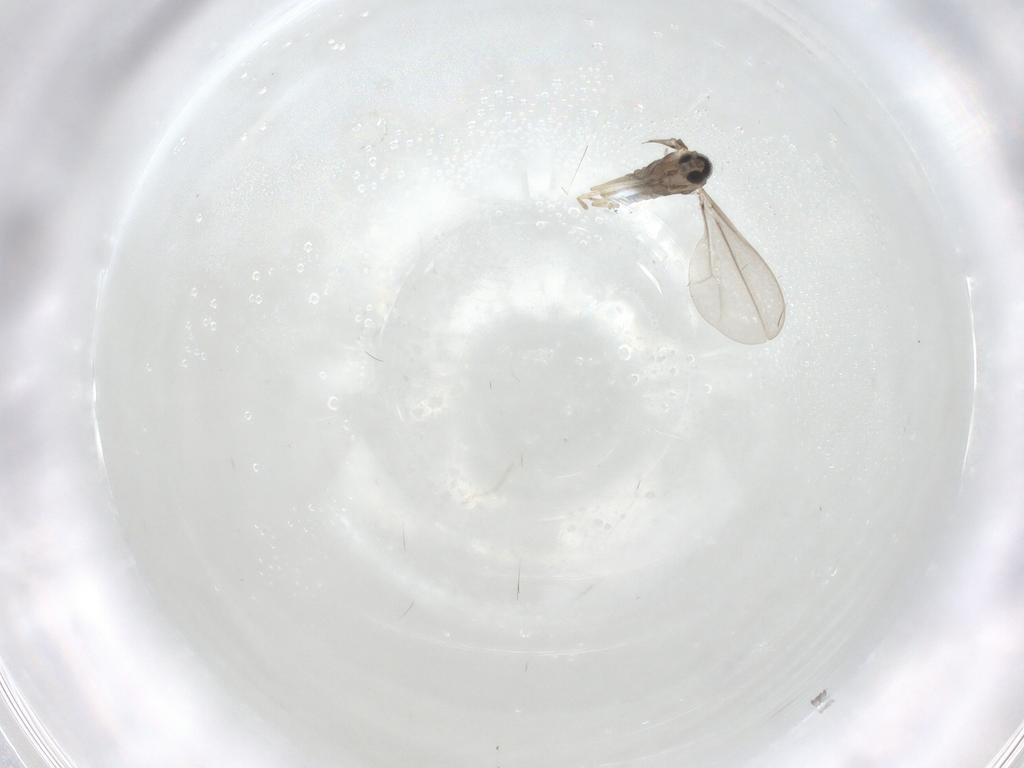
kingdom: Animalia
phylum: Arthropoda
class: Insecta
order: Diptera
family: Cecidomyiidae
